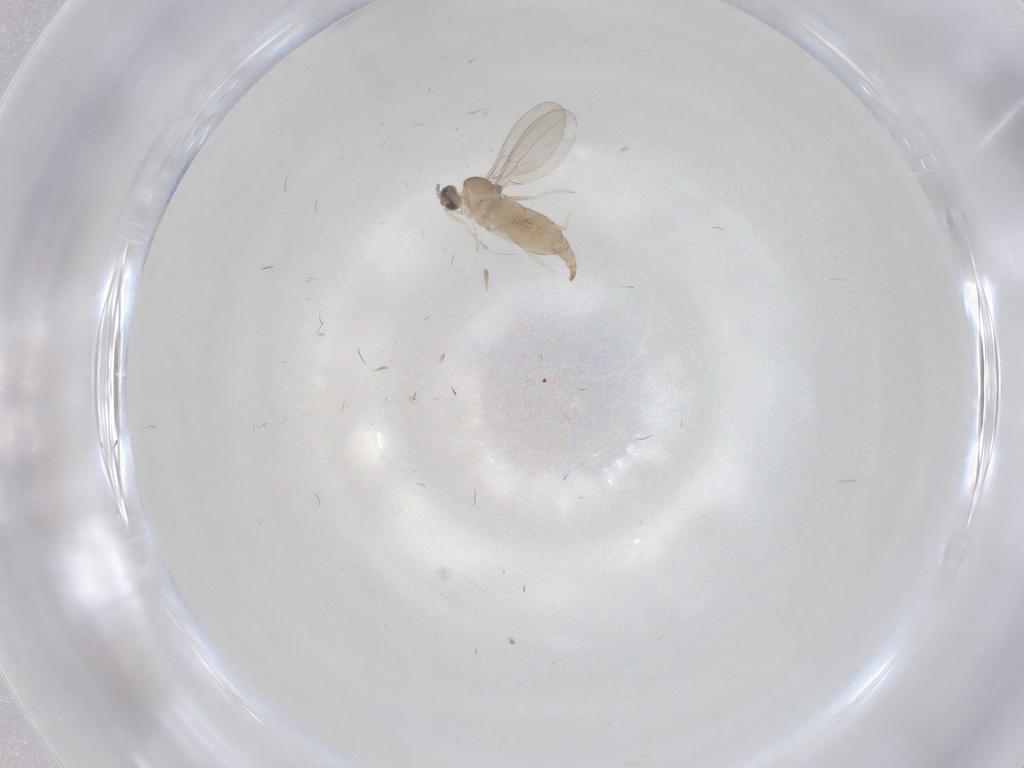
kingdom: Animalia
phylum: Arthropoda
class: Insecta
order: Diptera
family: Cecidomyiidae
